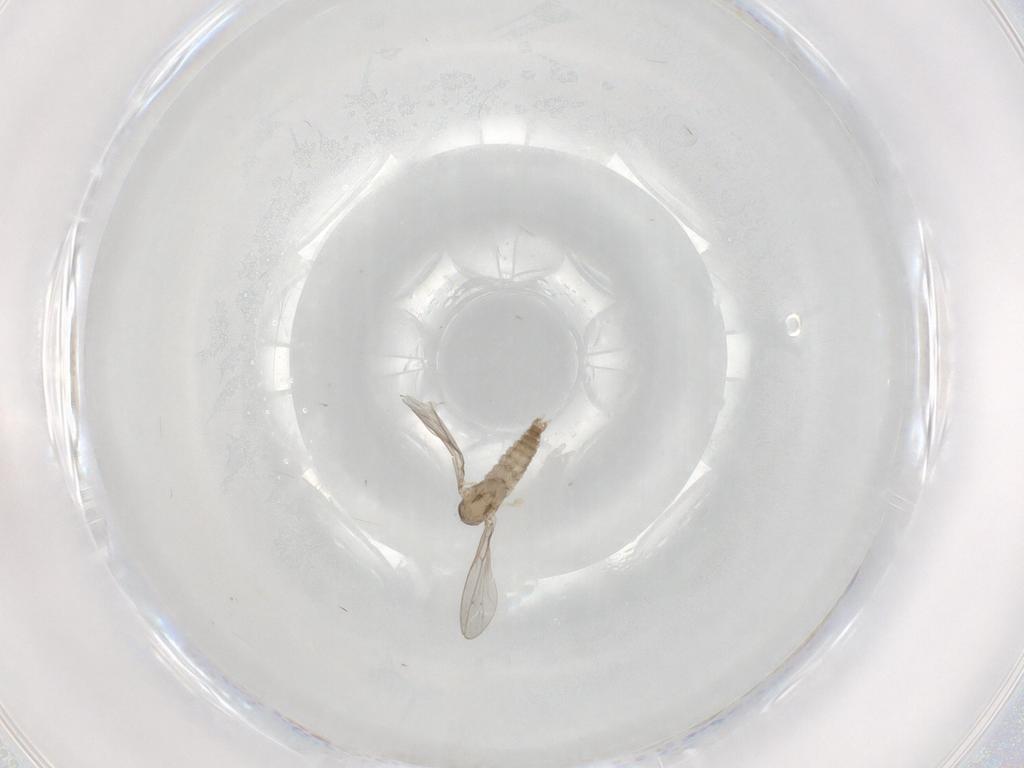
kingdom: Animalia
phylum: Arthropoda
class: Insecta
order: Diptera
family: Cecidomyiidae
